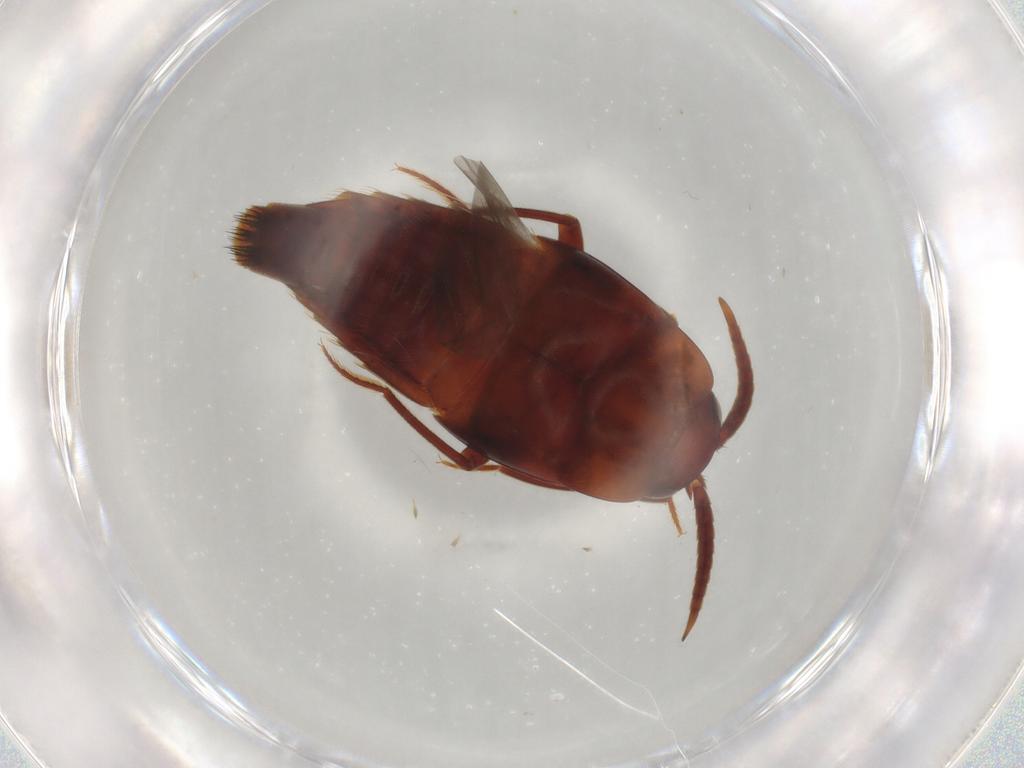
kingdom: Animalia
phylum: Arthropoda
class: Insecta
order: Coleoptera
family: Staphylinidae
